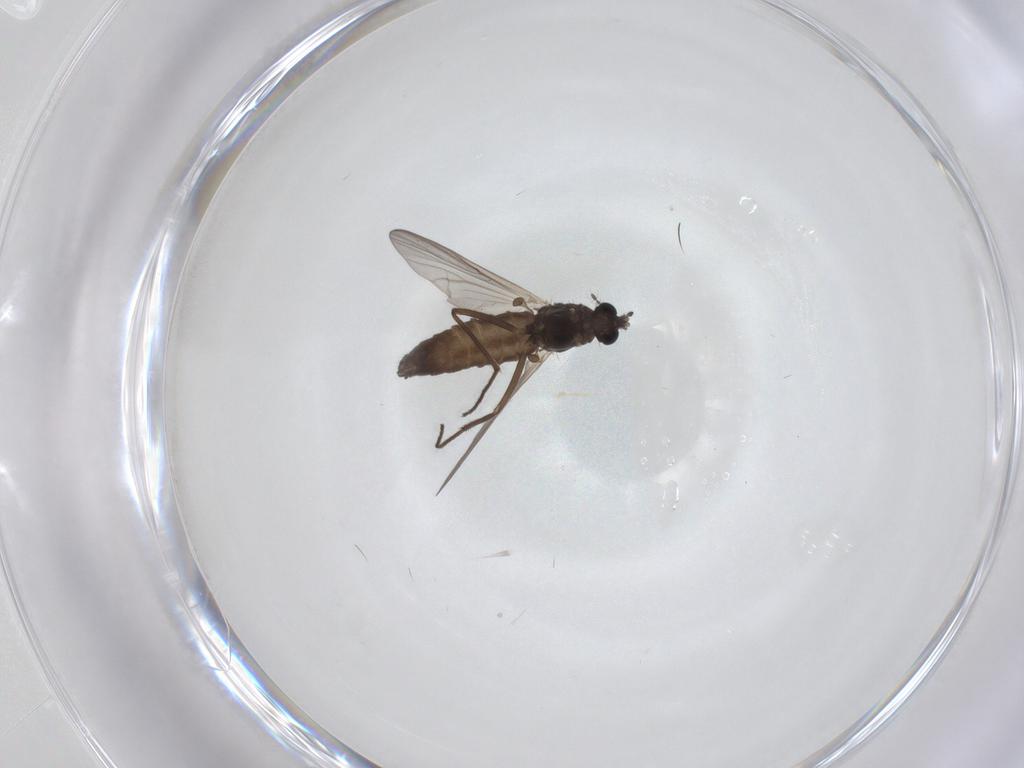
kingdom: Animalia
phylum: Arthropoda
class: Insecta
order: Diptera
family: Chironomidae
